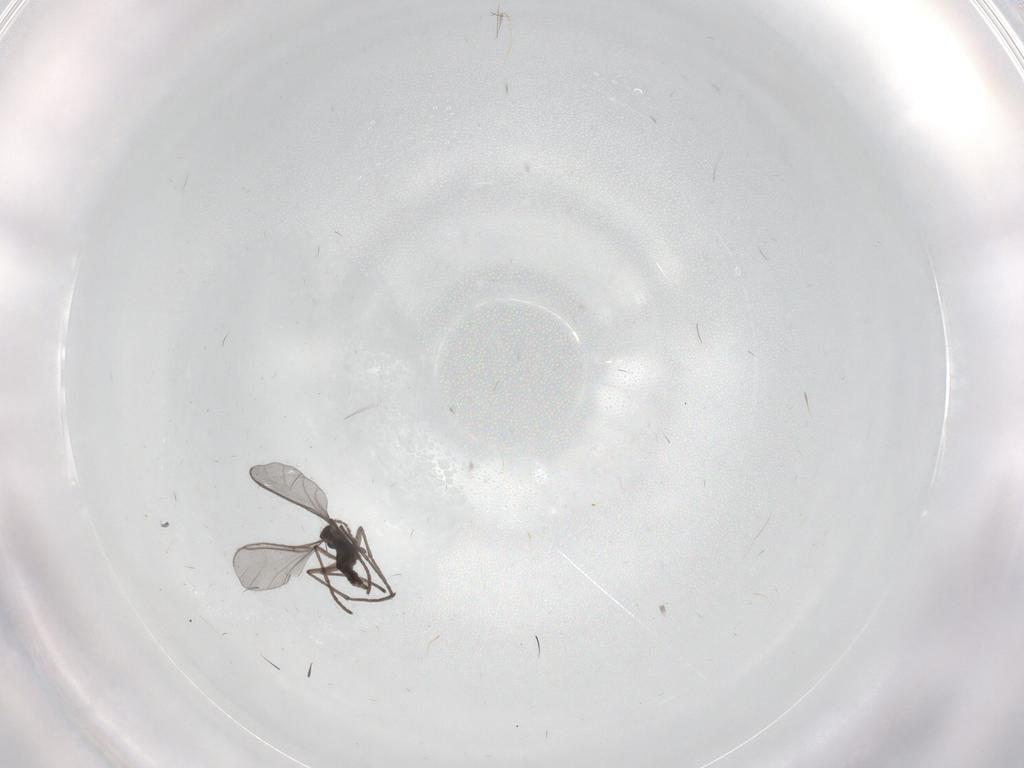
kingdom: Animalia
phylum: Arthropoda
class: Insecta
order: Diptera
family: Sciaridae
